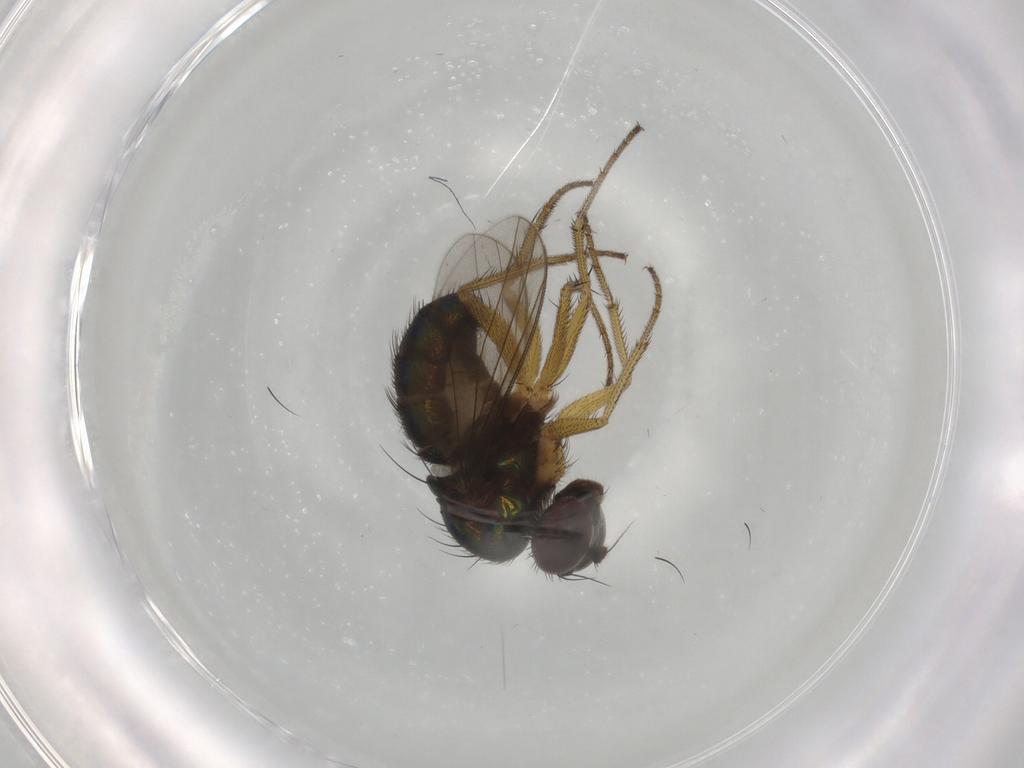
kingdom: Animalia
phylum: Arthropoda
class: Insecta
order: Diptera
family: Dolichopodidae
